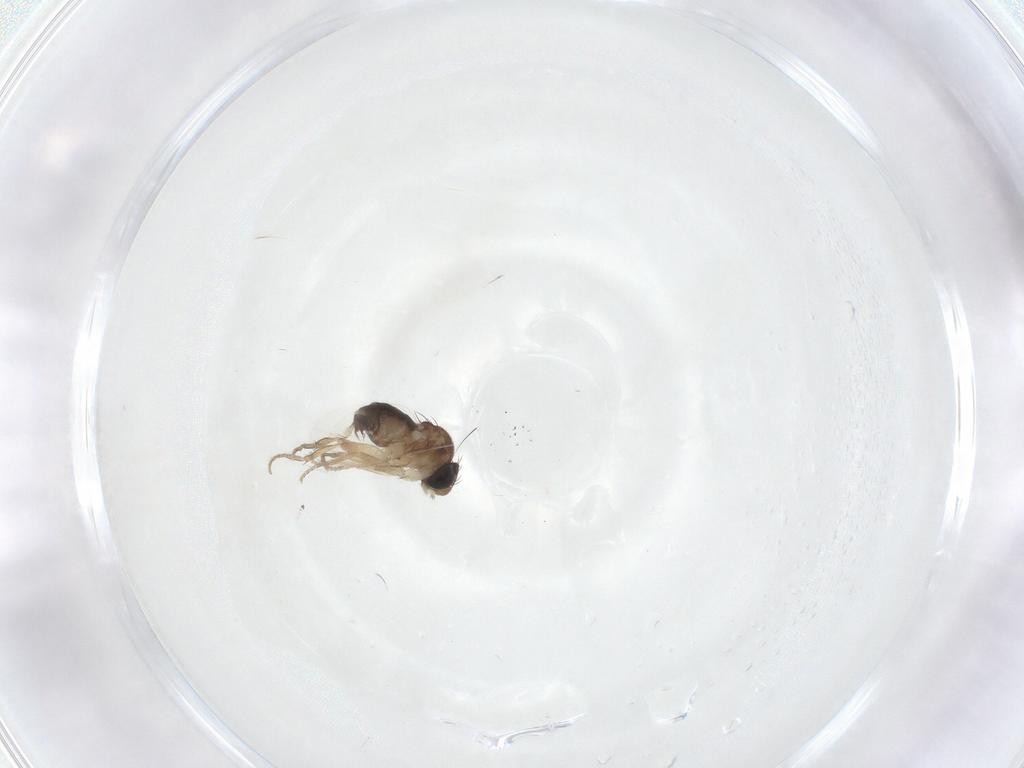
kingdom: Animalia
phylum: Arthropoda
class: Insecta
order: Diptera
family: Phoridae
